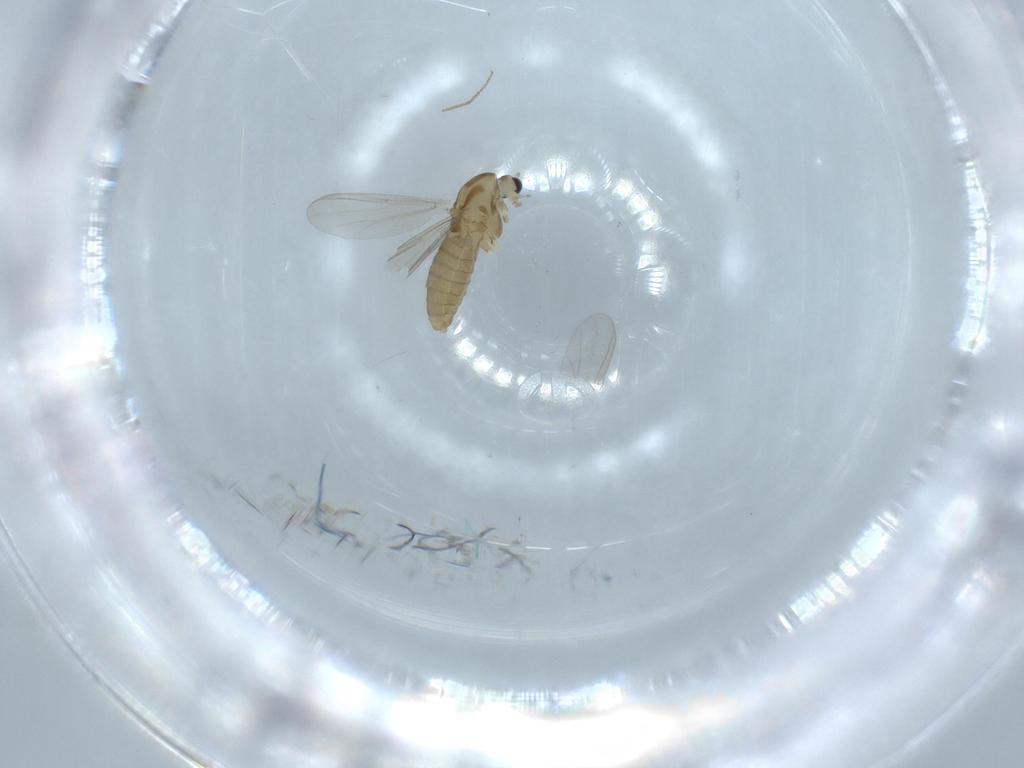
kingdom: Animalia
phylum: Arthropoda
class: Insecta
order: Diptera
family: Chironomidae
